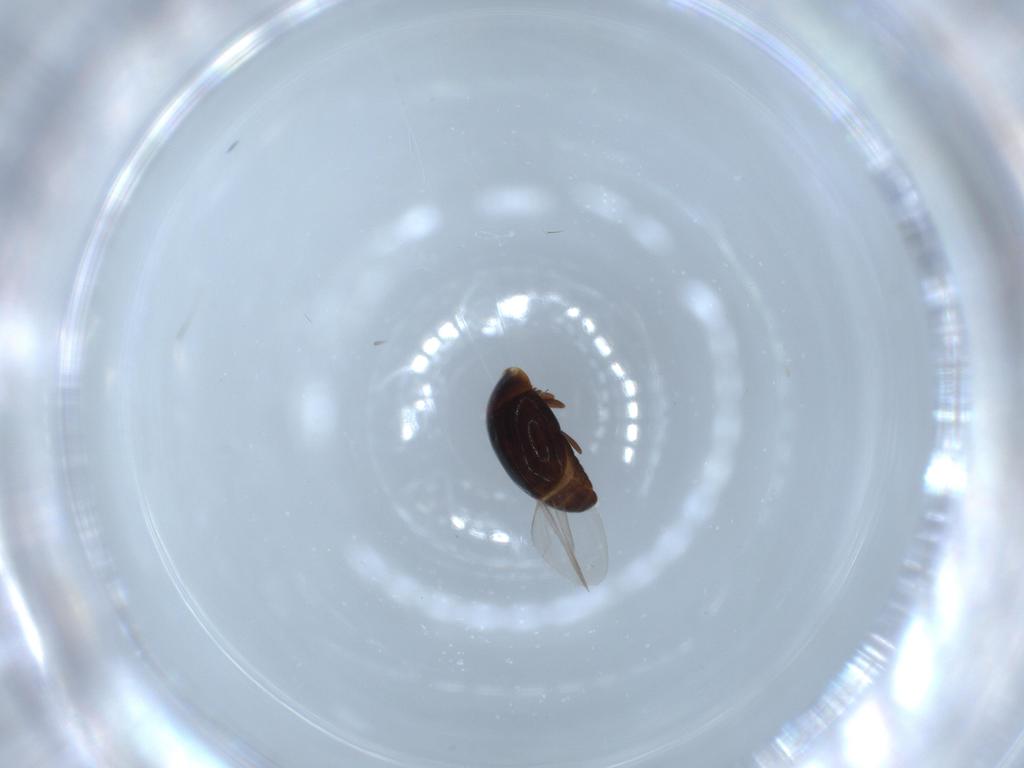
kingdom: Animalia
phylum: Arthropoda
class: Insecta
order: Coleoptera
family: Corylophidae
